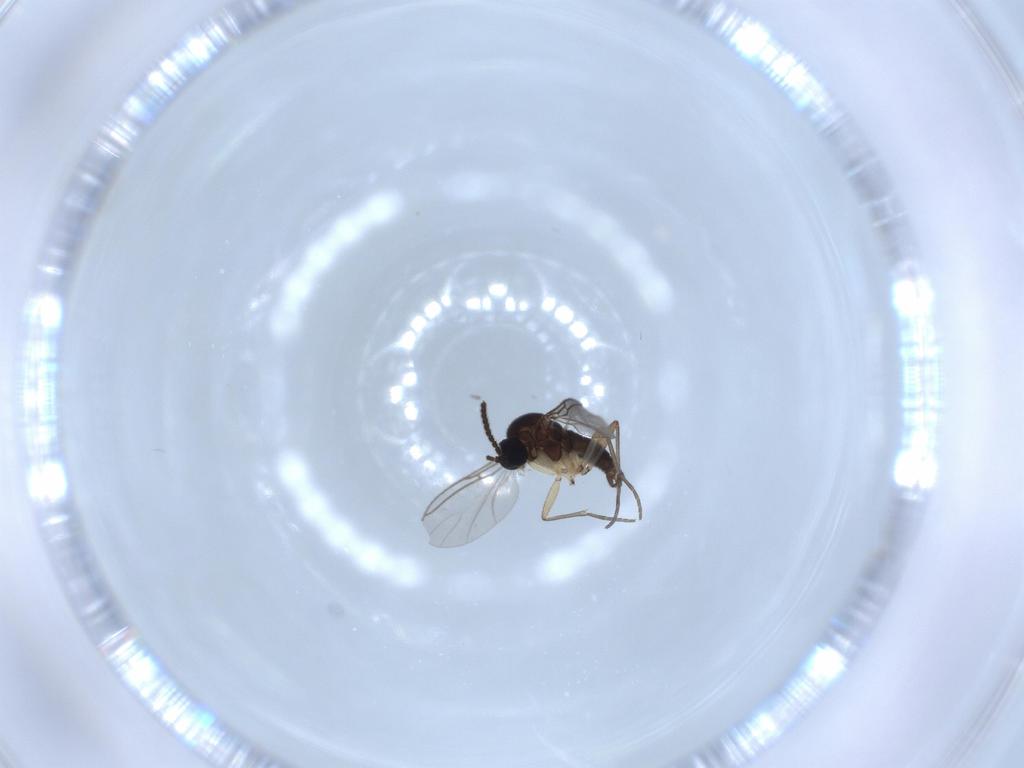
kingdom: Animalia
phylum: Arthropoda
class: Insecta
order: Diptera
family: Sciaridae
